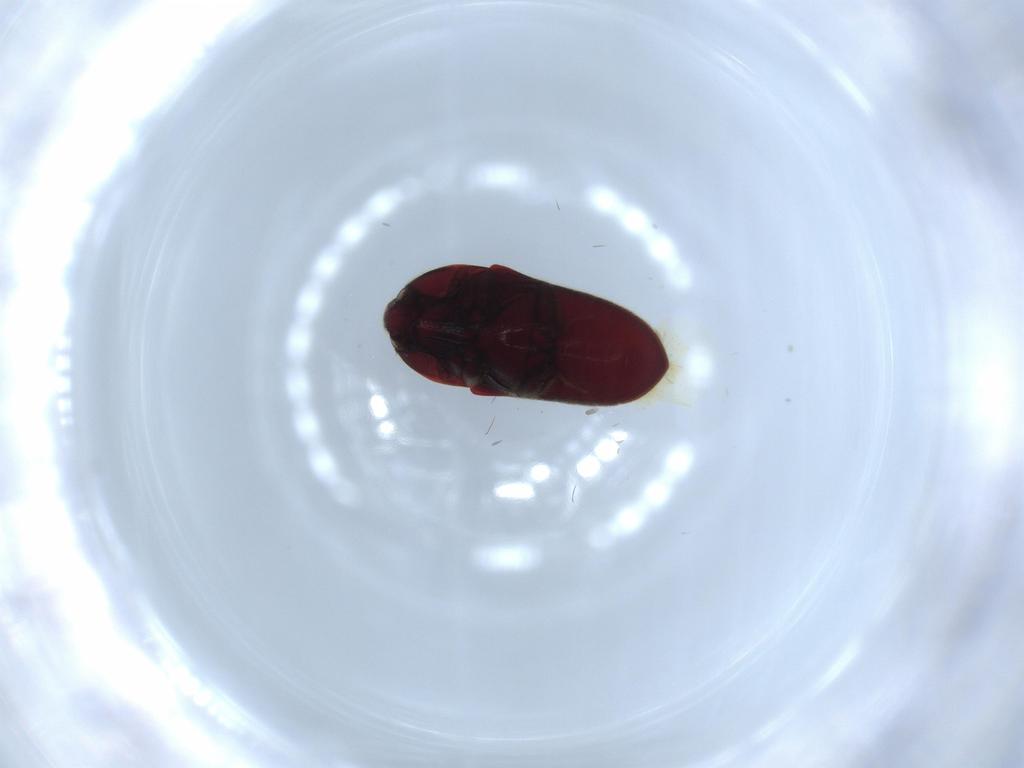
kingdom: Animalia
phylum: Arthropoda
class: Insecta
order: Coleoptera
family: Throscidae
